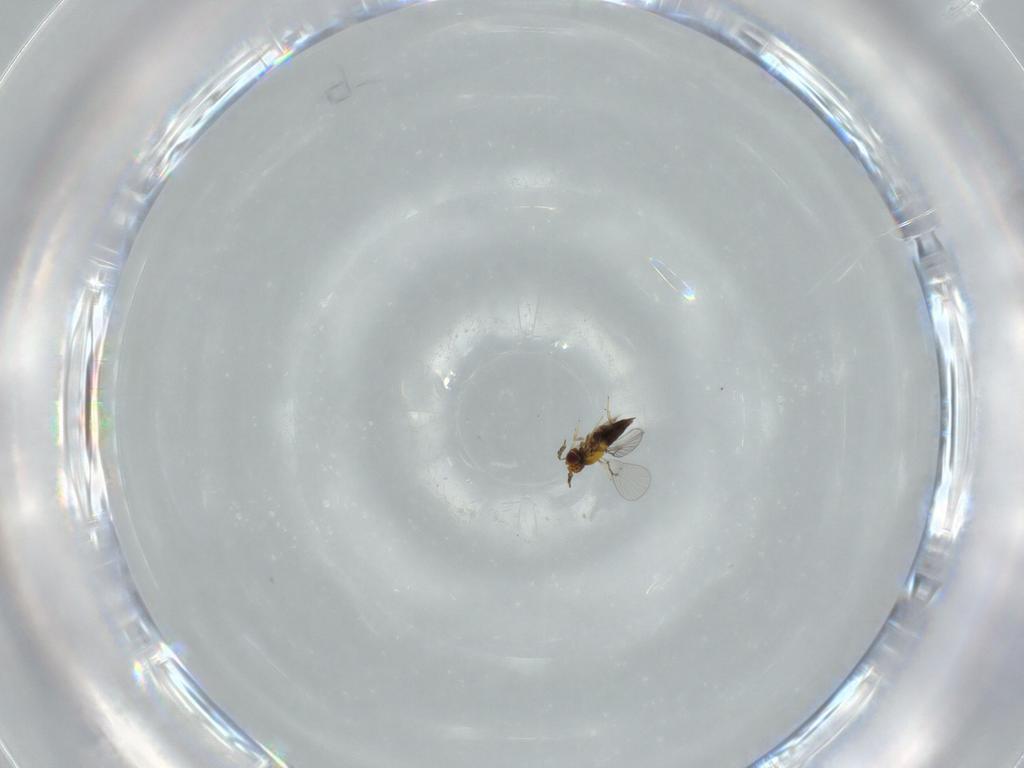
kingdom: Animalia
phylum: Arthropoda
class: Insecta
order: Hymenoptera
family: Trichogrammatidae
